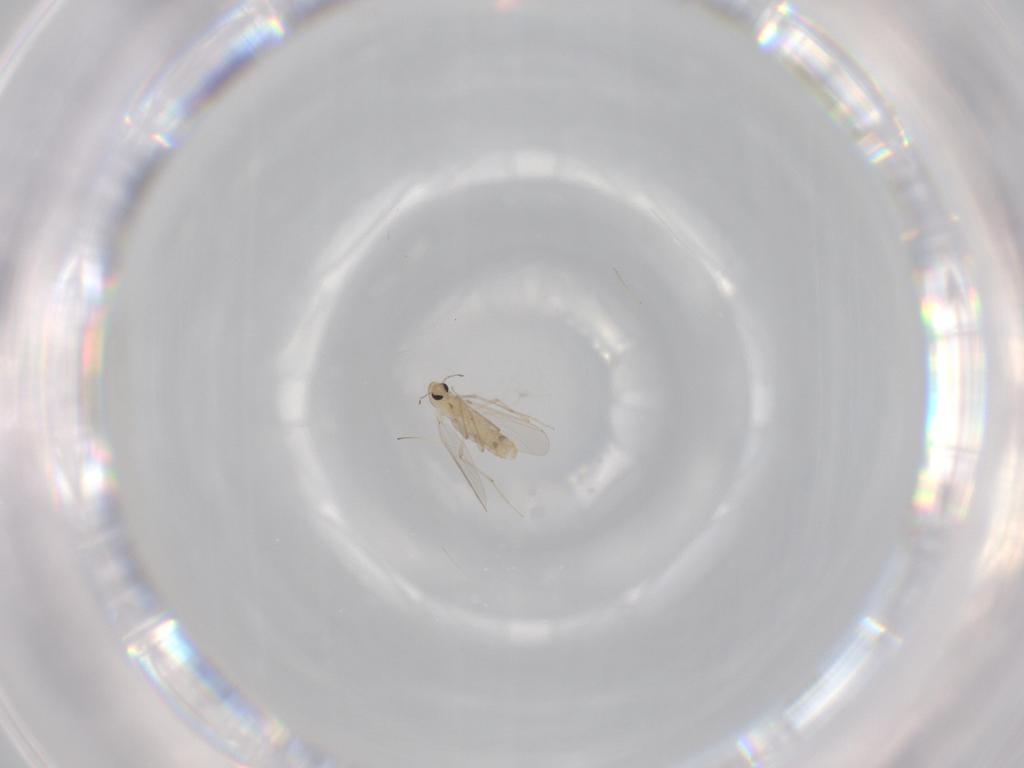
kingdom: Animalia
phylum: Arthropoda
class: Insecta
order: Diptera
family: Chironomidae
